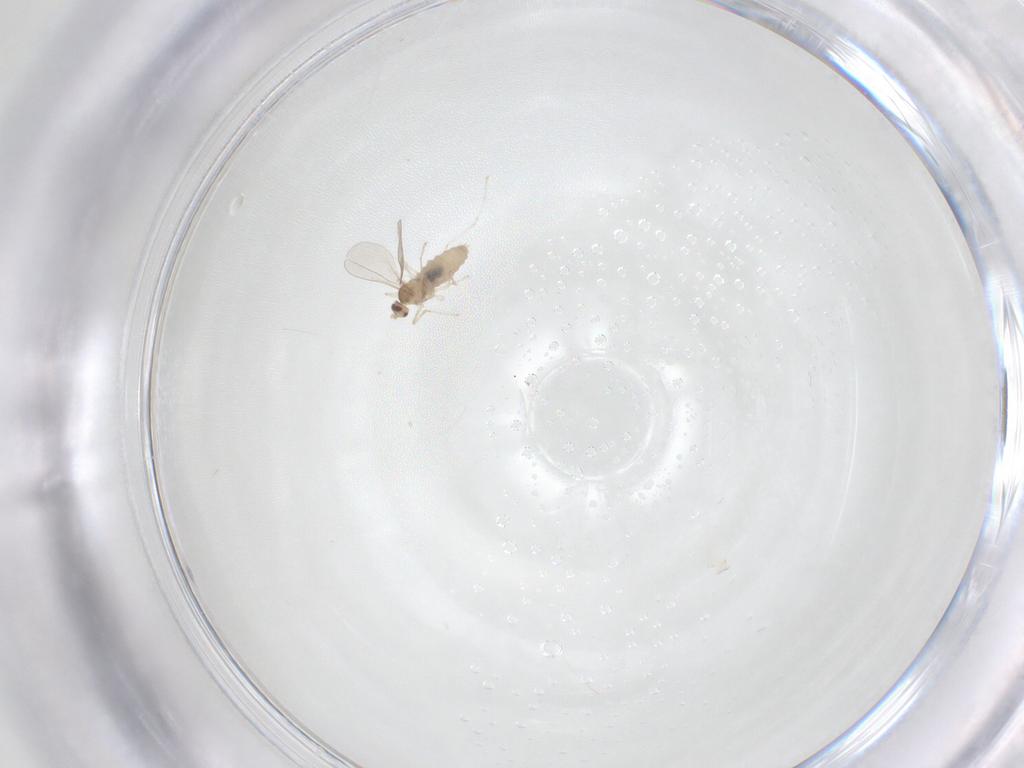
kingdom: Animalia
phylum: Arthropoda
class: Insecta
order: Diptera
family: Cecidomyiidae
